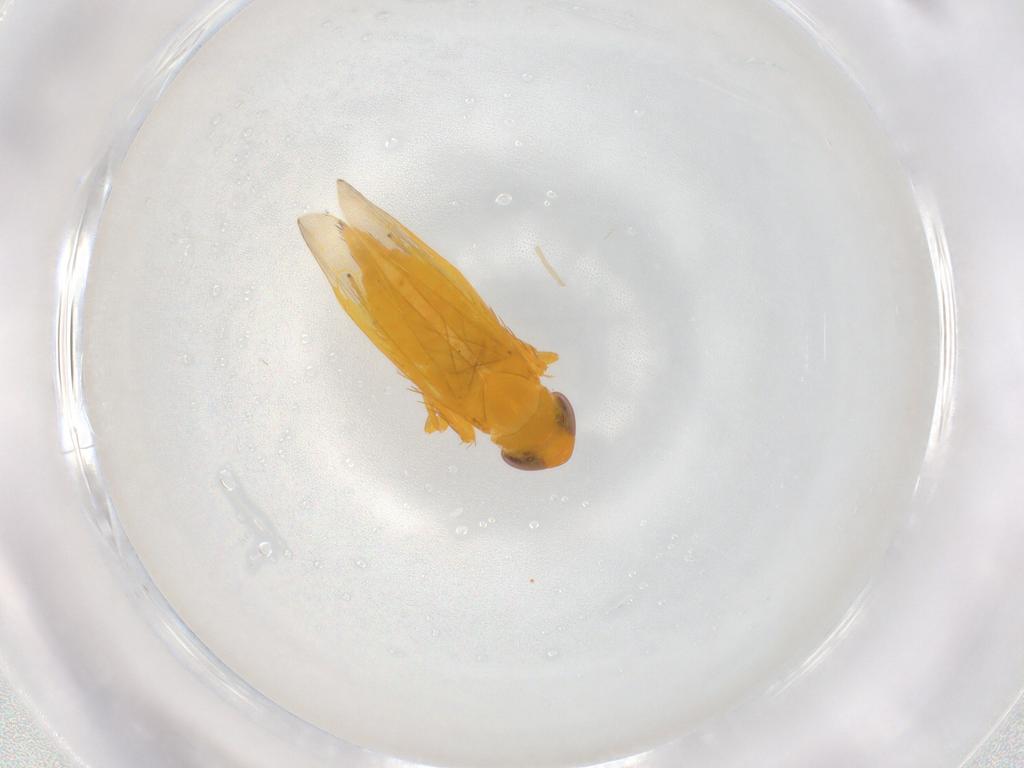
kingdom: Animalia
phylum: Arthropoda
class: Insecta
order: Hemiptera
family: Cicadellidae
